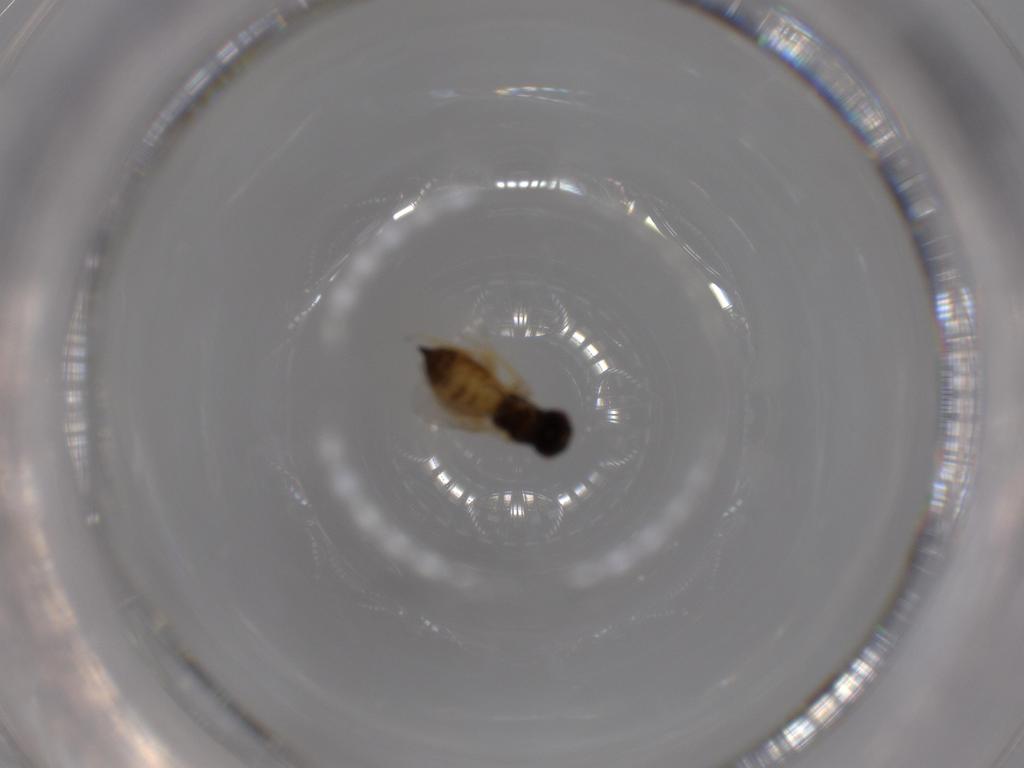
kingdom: Animalia
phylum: Arthropoda
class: Insecta
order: Hymenoptera
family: Eulophidae
